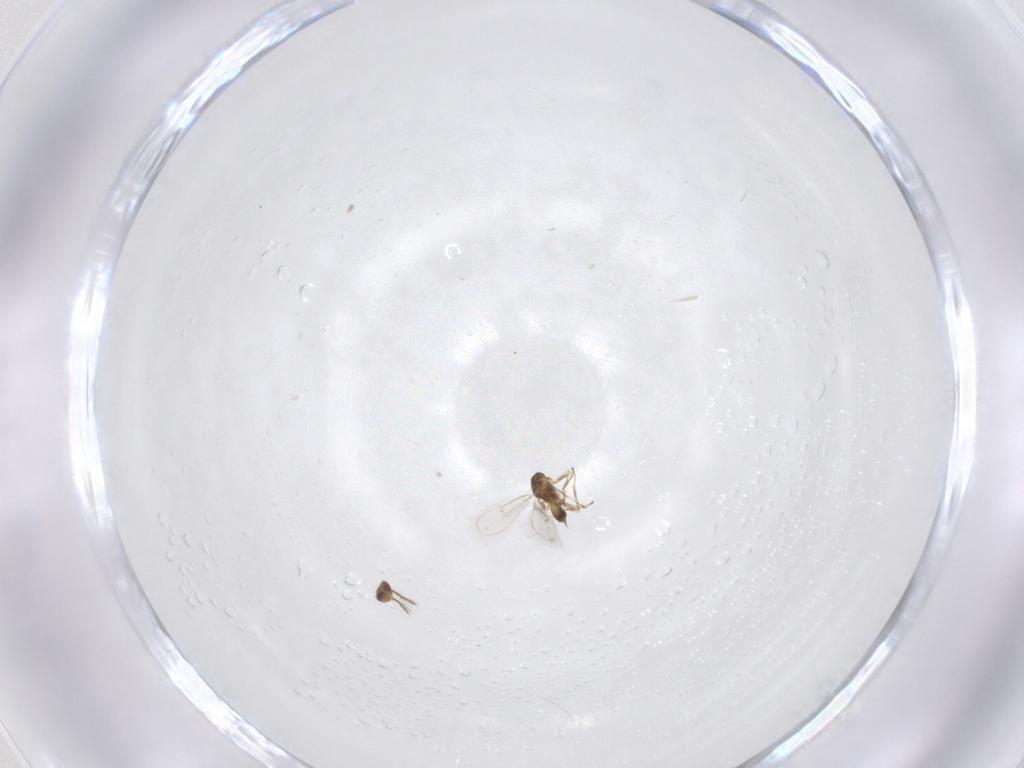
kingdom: Animalia
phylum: Arthropoda
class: Insecta
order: Hymenoptera
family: Eulophidae
